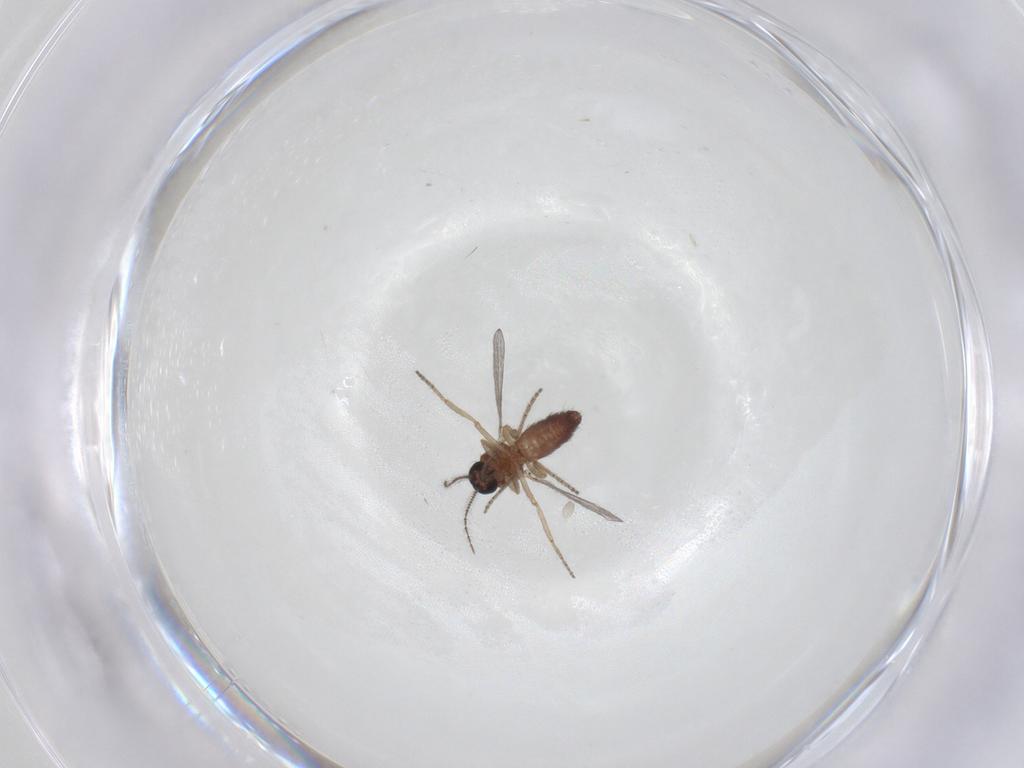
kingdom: Animalia
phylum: Arthropoda
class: Insecta
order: Diptera
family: Ceratopogonidae
